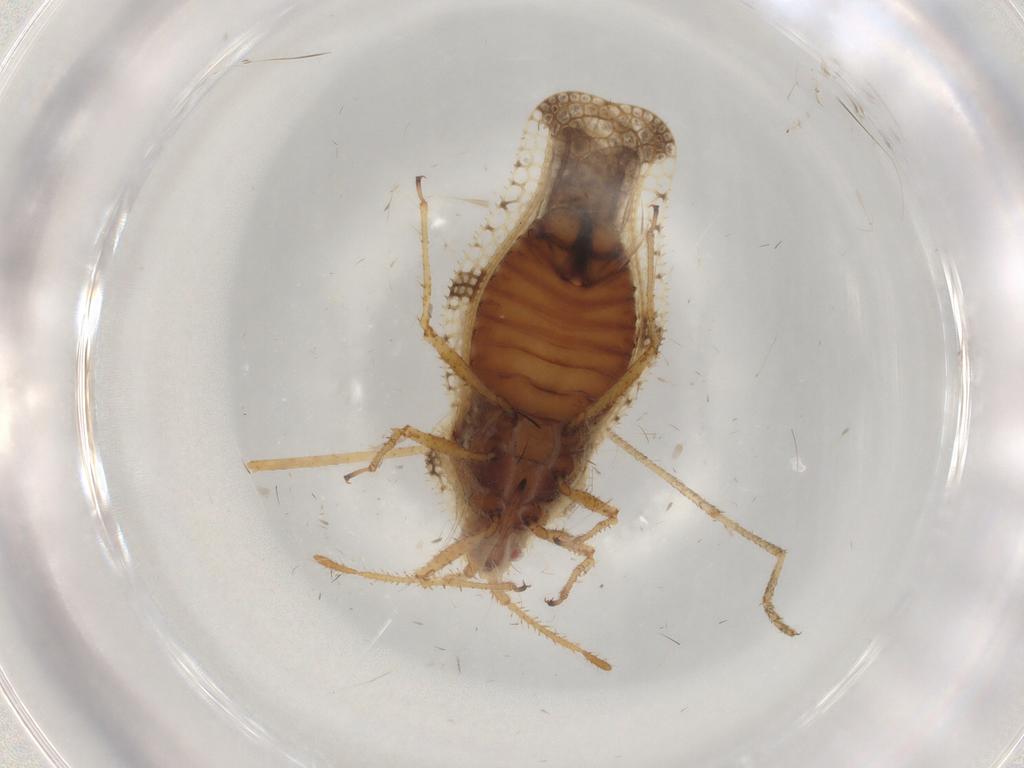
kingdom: Animalia
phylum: Arthropoda
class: Insecta
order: Hemiptera
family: Tingidae
